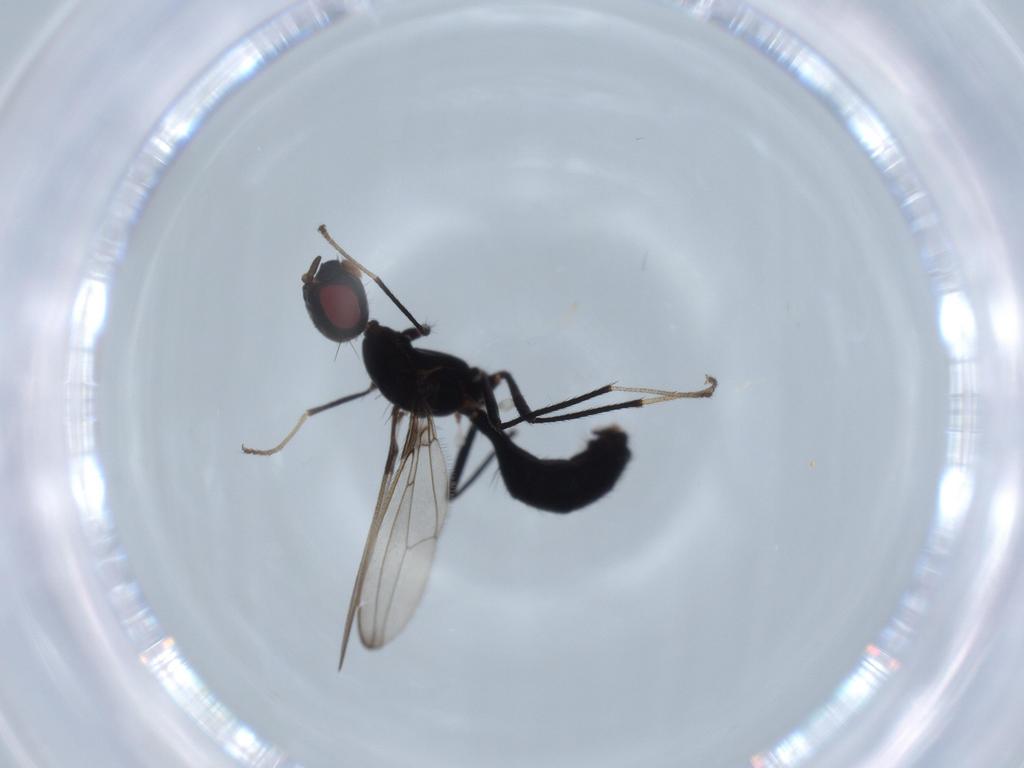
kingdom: Animalia
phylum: Arthropoda
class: Insecta
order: Diptera
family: Richardiidae
